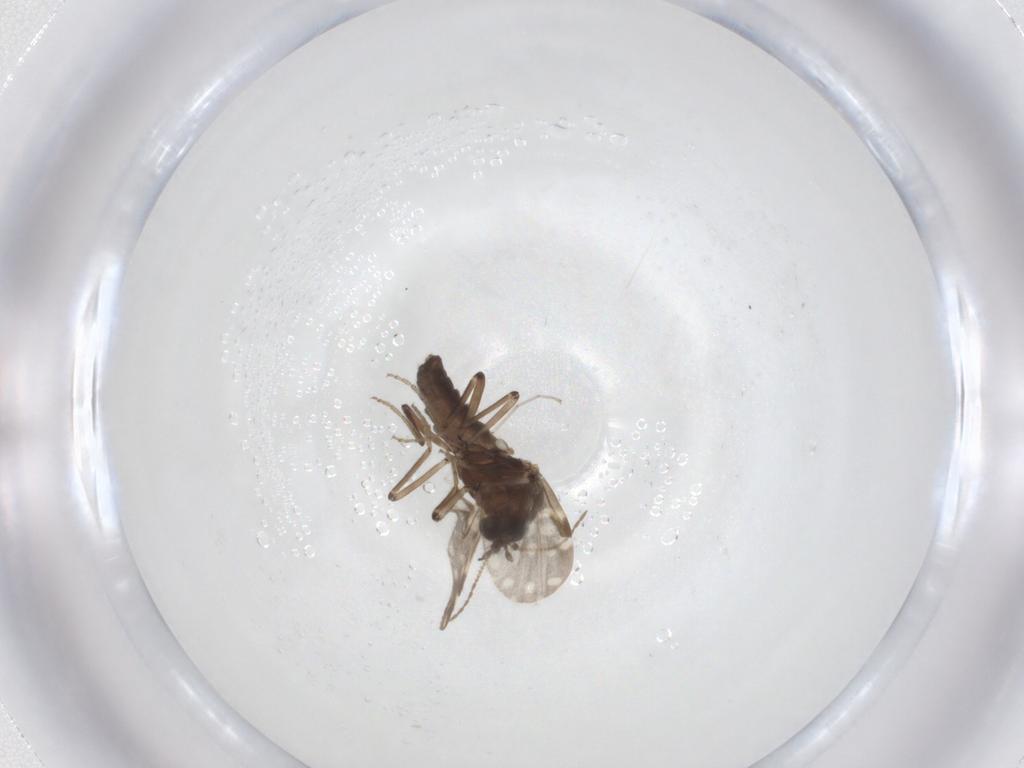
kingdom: Animalia
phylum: Arthropoda
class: Insecta
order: Diptera
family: Ceratopogonidae
